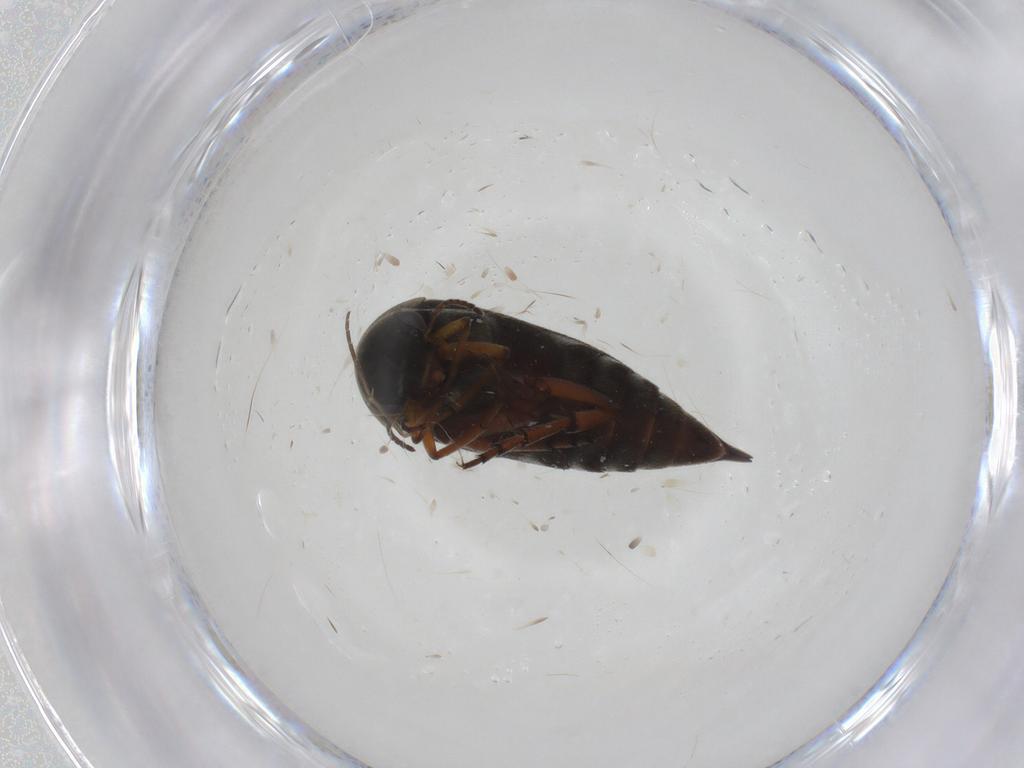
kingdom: Animalia
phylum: Arthropoda
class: Insecta
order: Coleoptera
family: Mordellidae
